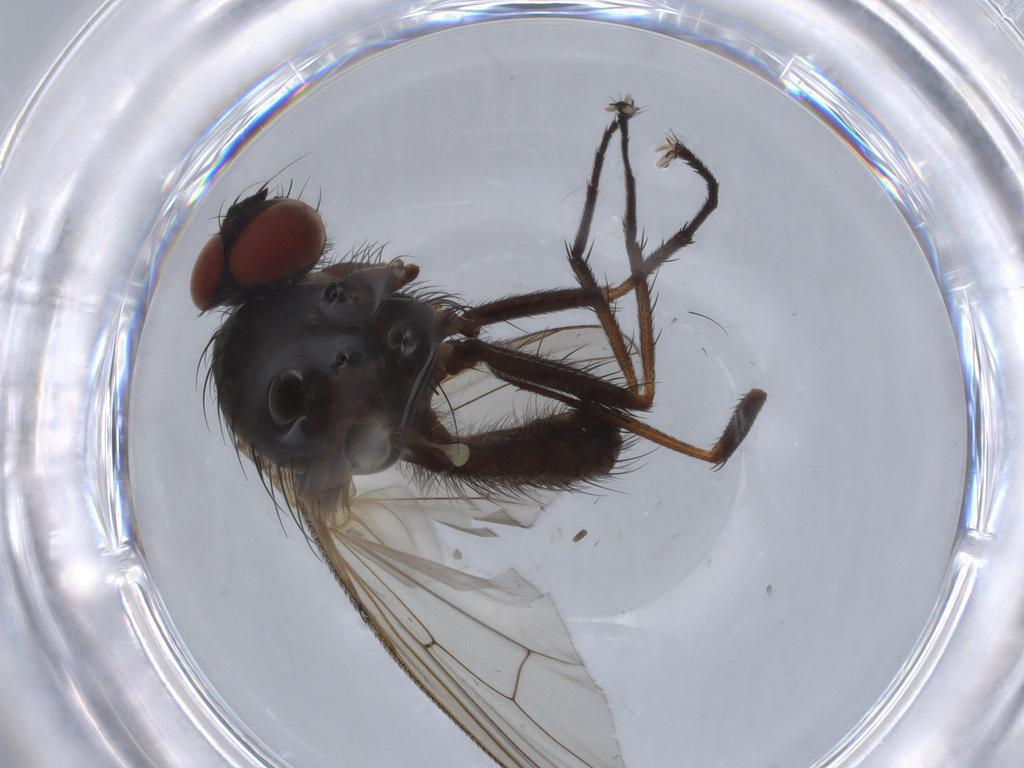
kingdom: Animalia
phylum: Arthropoda
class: Insecta
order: Diptera
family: Anthomyiidae
